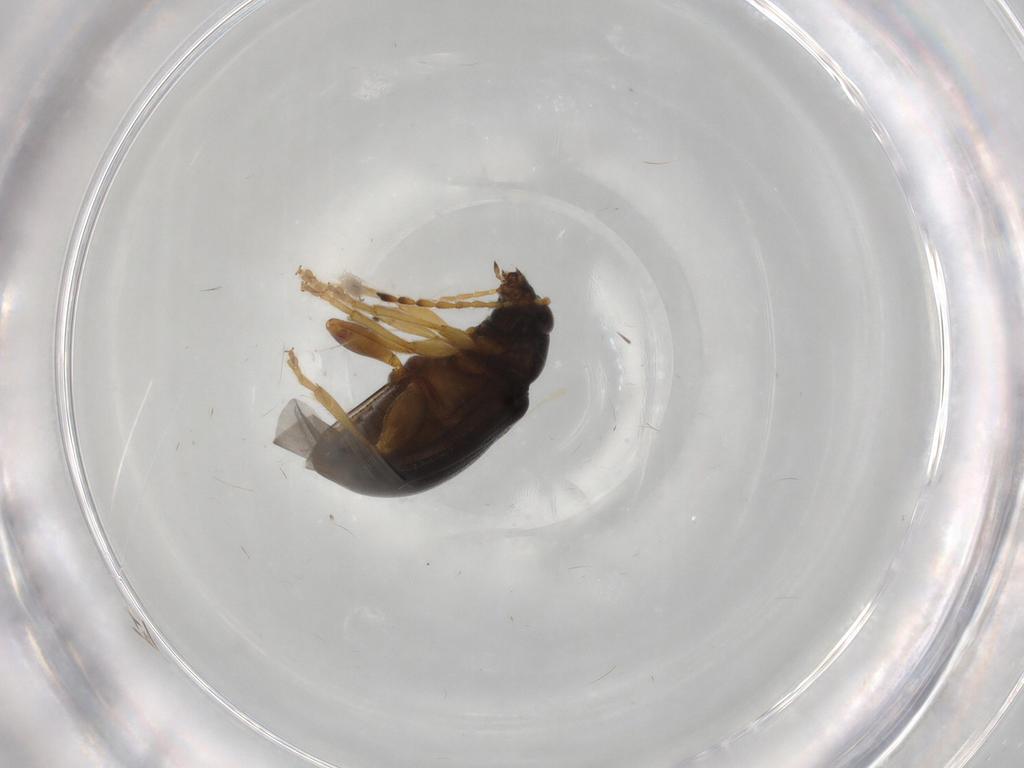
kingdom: Animalia
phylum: Arthropoda
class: Insecta
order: Coleoptera
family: Chrysomelidae
